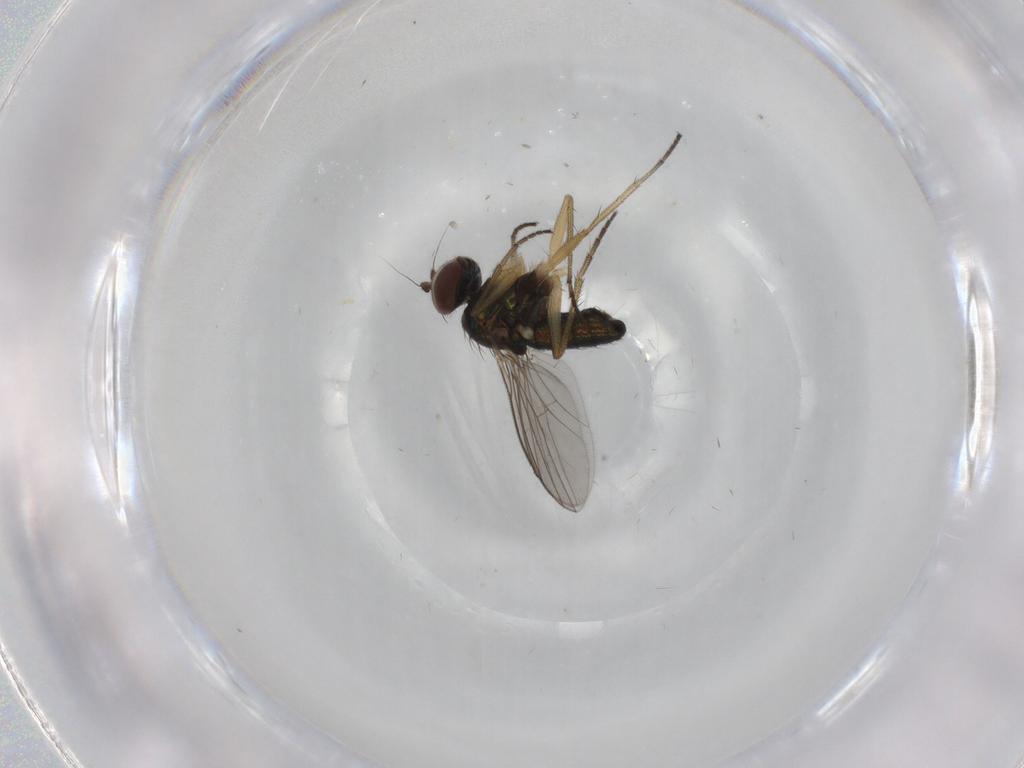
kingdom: Animalia
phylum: Arthropoda
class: Insecta
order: Diptera
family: Dolichopodidae
